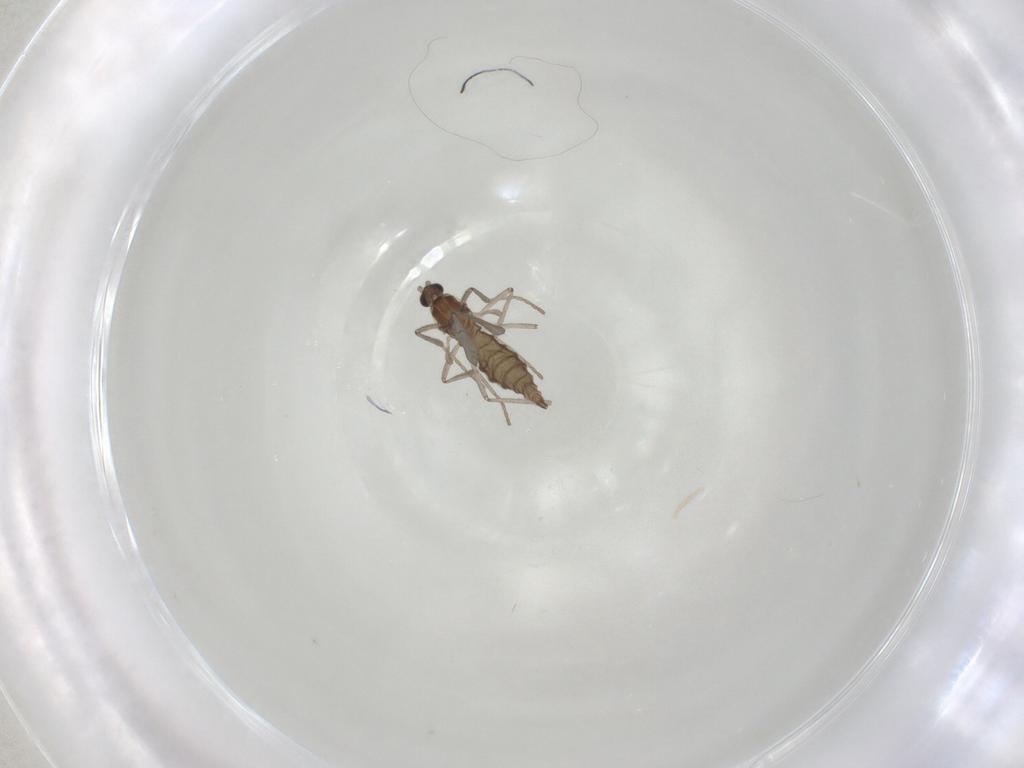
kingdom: Animalia
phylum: Arthropoda
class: Insecta
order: Diptera
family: Cecidomyiidae
